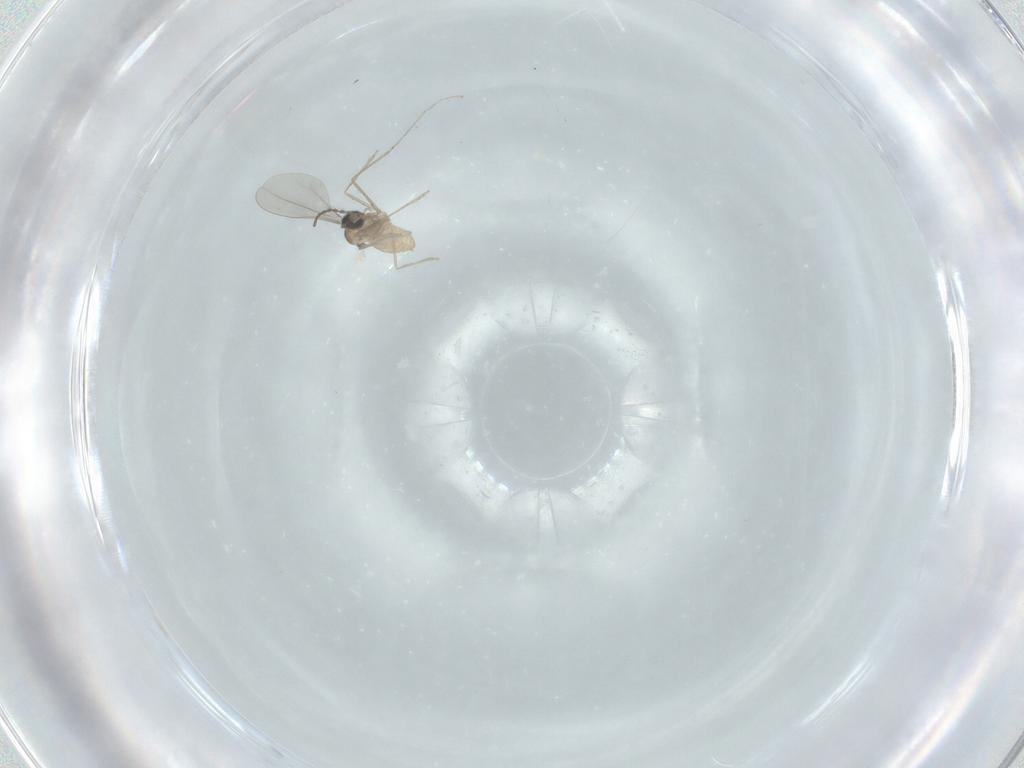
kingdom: Animalia
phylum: Arthropoda
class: Insecta
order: Diptera
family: Cecidomyiidae
